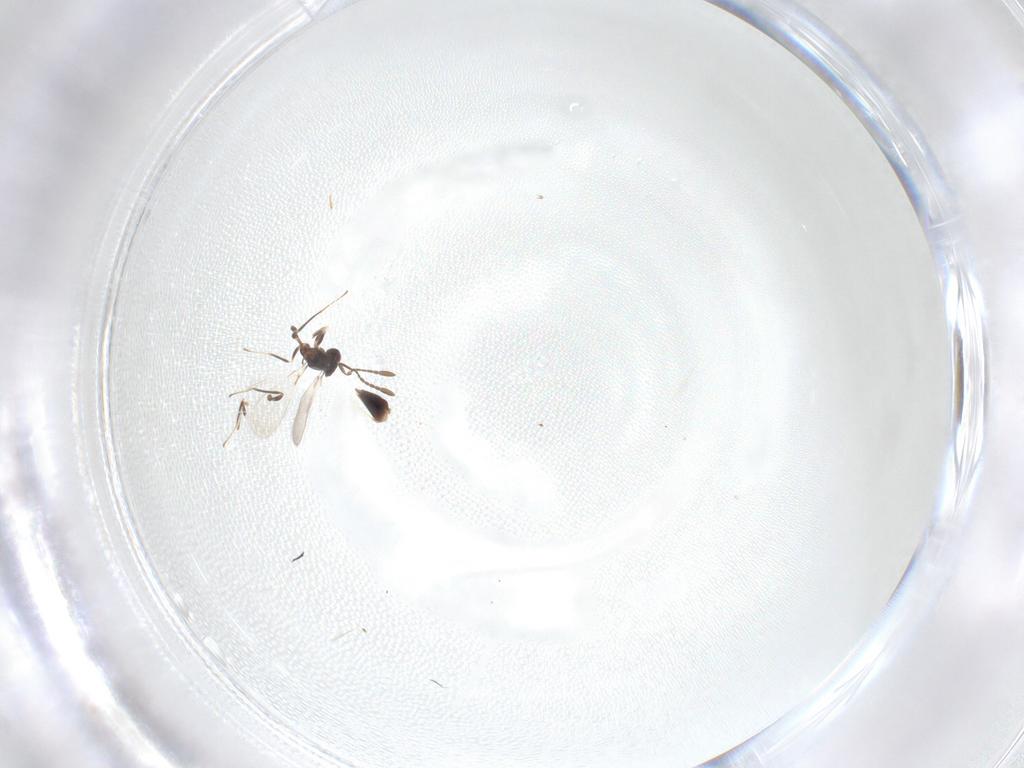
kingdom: Animalia
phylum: Arthropoda
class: Insecta
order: Hymenoptera
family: Mymaridae
